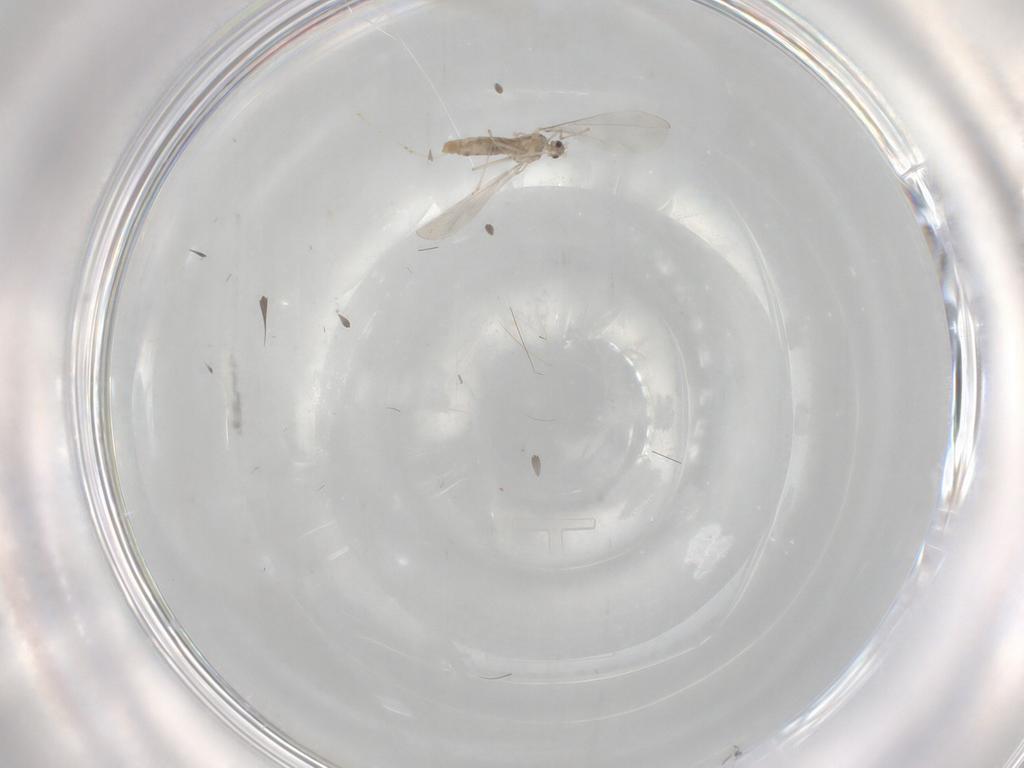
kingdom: Animalia
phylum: Arthropoda
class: Insecta
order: Diptera
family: Cecidomyiidae
